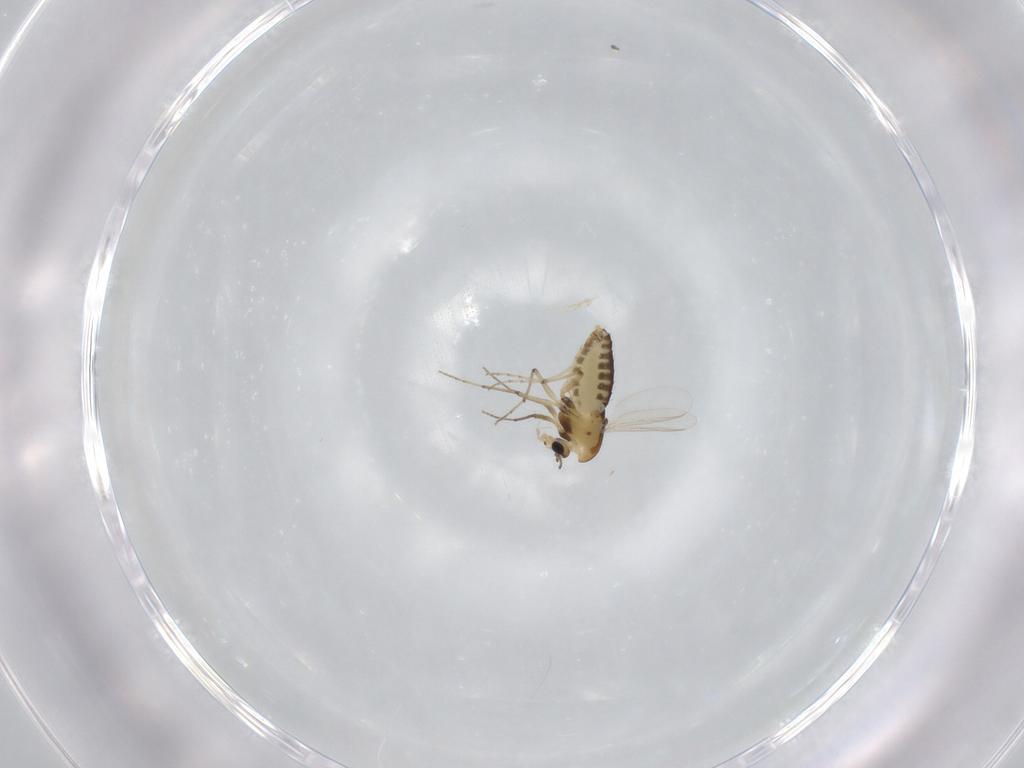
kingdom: Animalia
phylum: Arthropoda
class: Insecta
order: Diptera
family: Chironomidae
